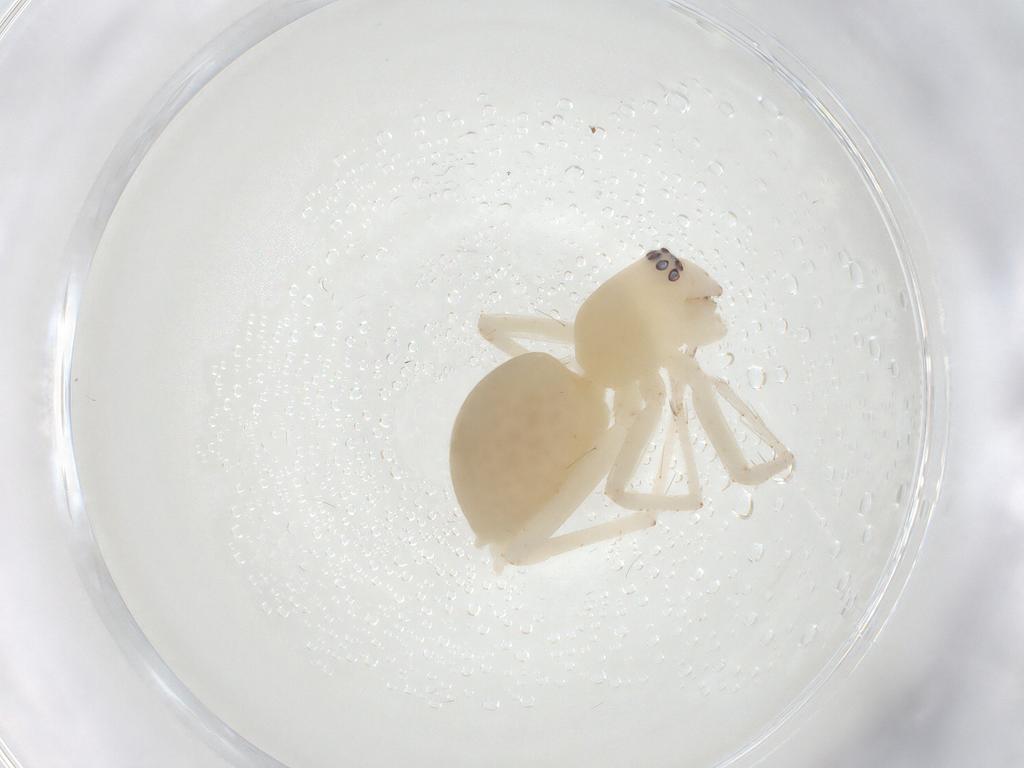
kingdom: Animalia
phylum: Arthropoda
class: Arachnida
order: Araneae
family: Anyphaenidae
